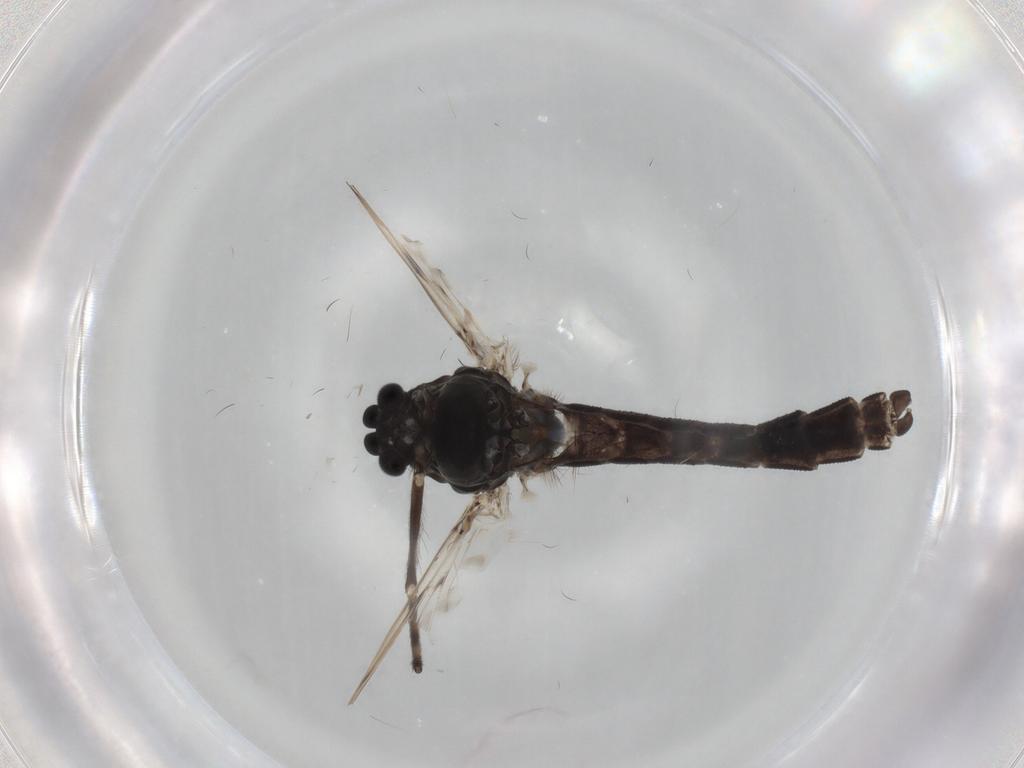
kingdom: Animalia
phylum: Arthropoda
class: Insecta
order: Diptera
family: Chironomidae
